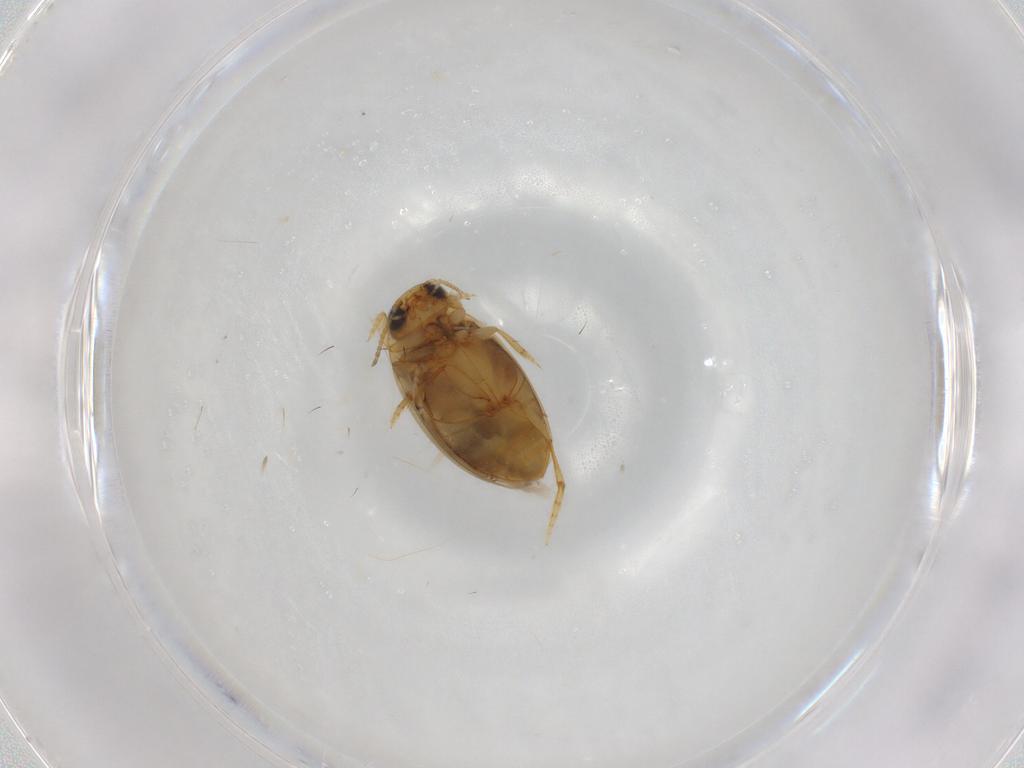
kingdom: Animalia
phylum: Arthropoda
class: Insecta
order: Coleoptera
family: Dytiscidae
